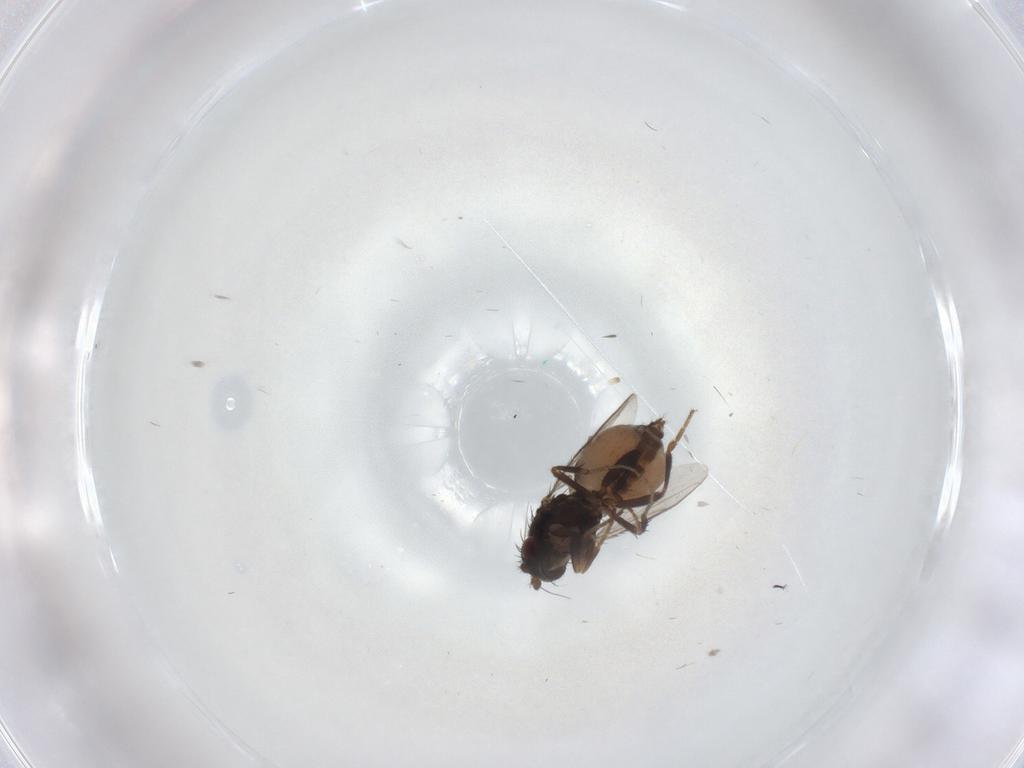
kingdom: Animalia
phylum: Arthropoda
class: Insecta
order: Diptera
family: Sphaeroceridae
